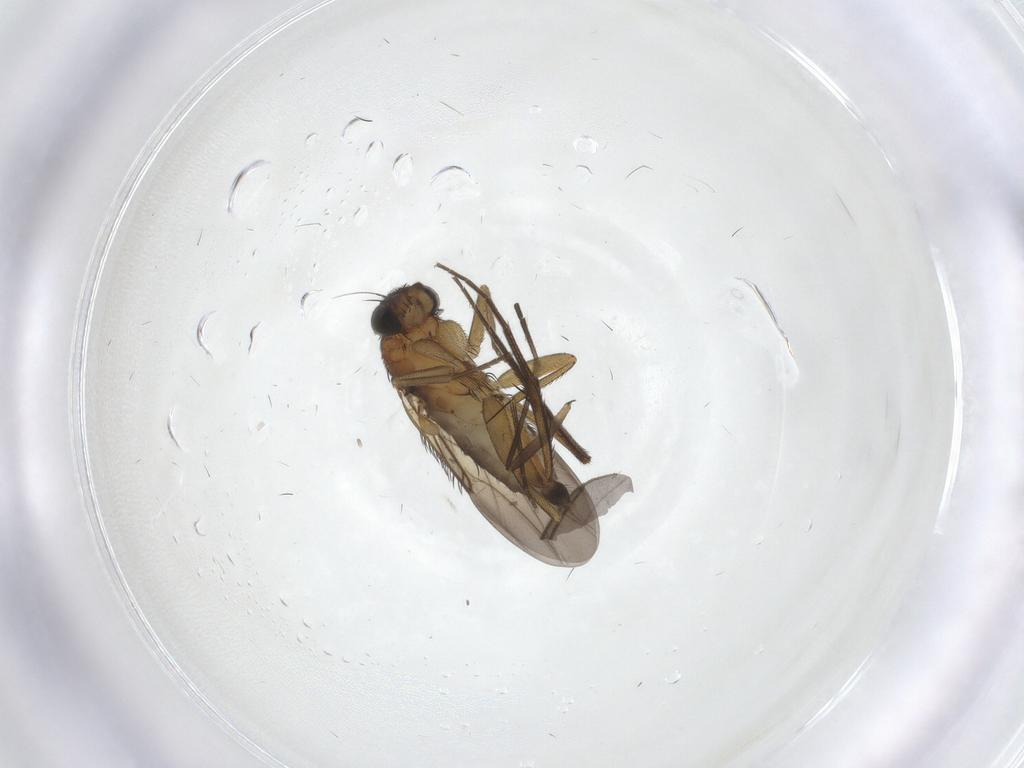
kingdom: Animalia
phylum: Arthropoda
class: Insecta
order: Diptera
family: Phoridae
